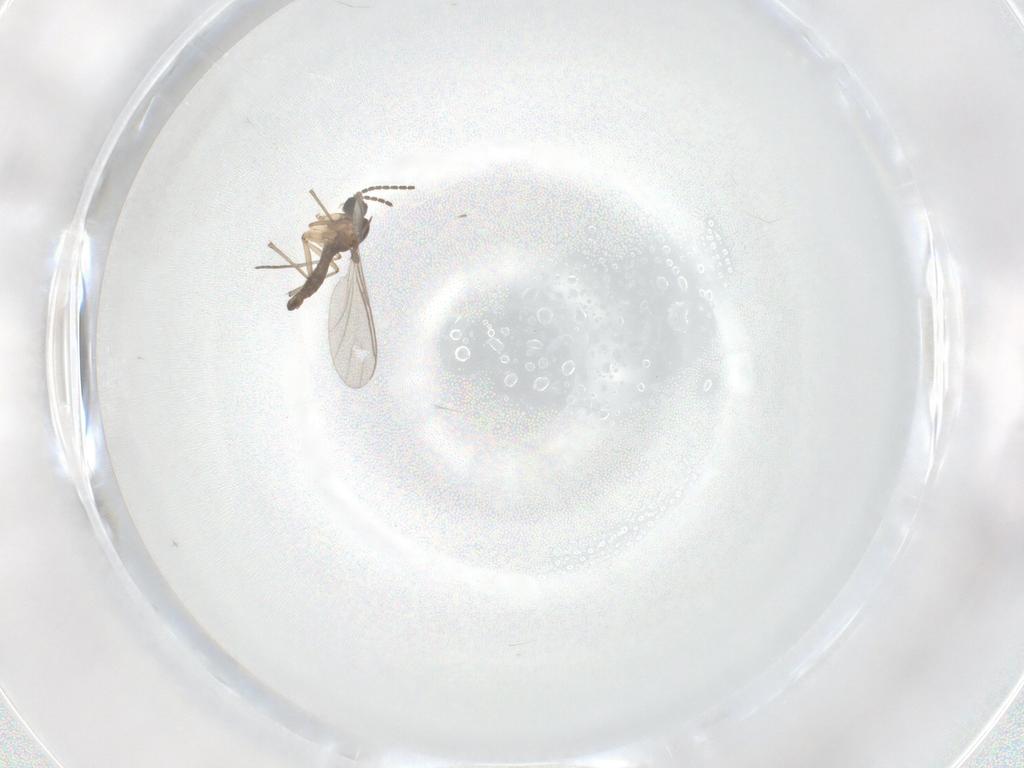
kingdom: Animalia
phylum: Arthropoda
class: Insecta
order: Diptera
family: Sciaridae
